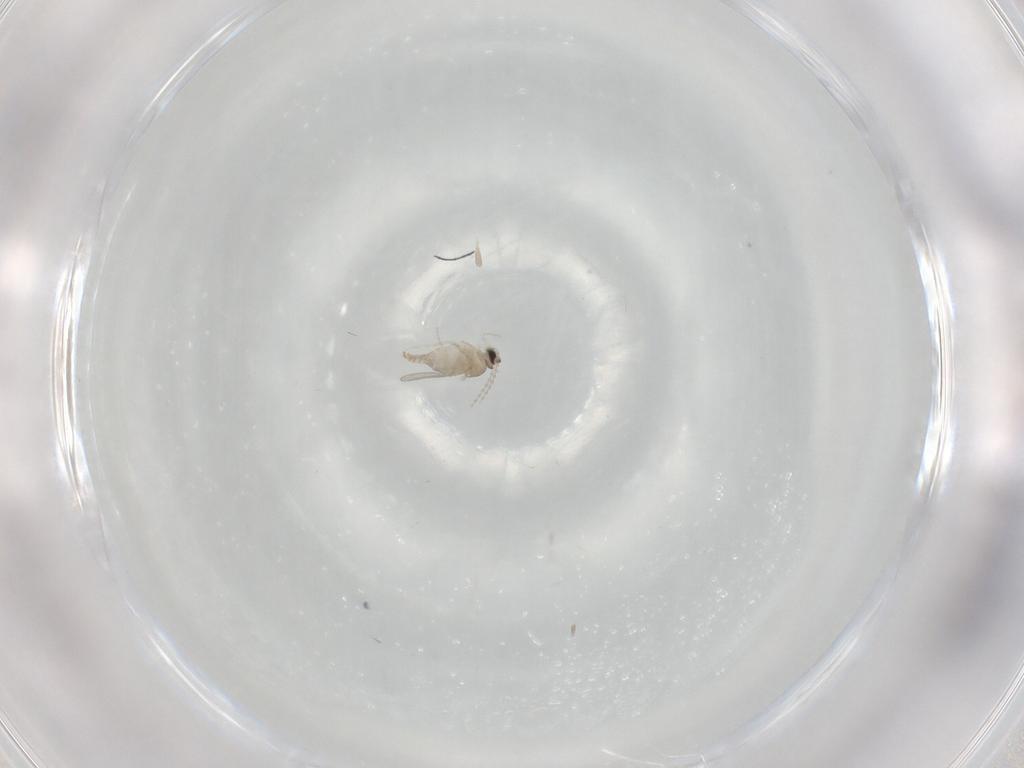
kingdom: Animalia
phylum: Arthropoda
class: Insecta
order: Diptera
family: Cecidomyiidae
